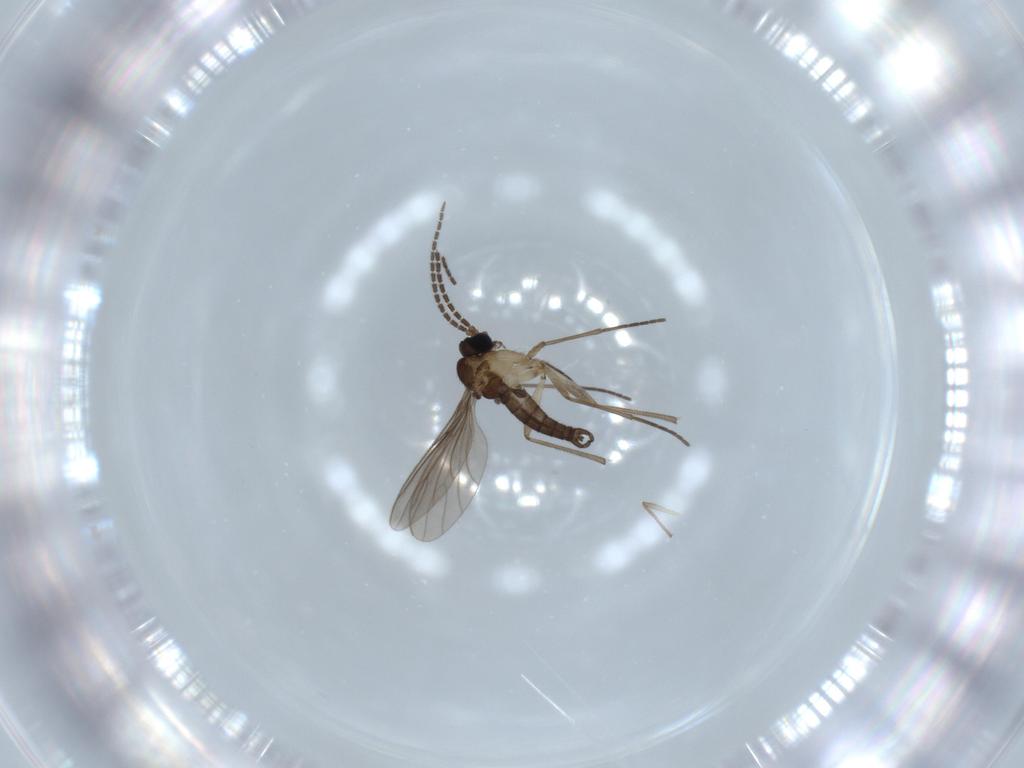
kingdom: Animalia
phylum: Arthropoda
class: Insecta
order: Diptera
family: Sciaridae
